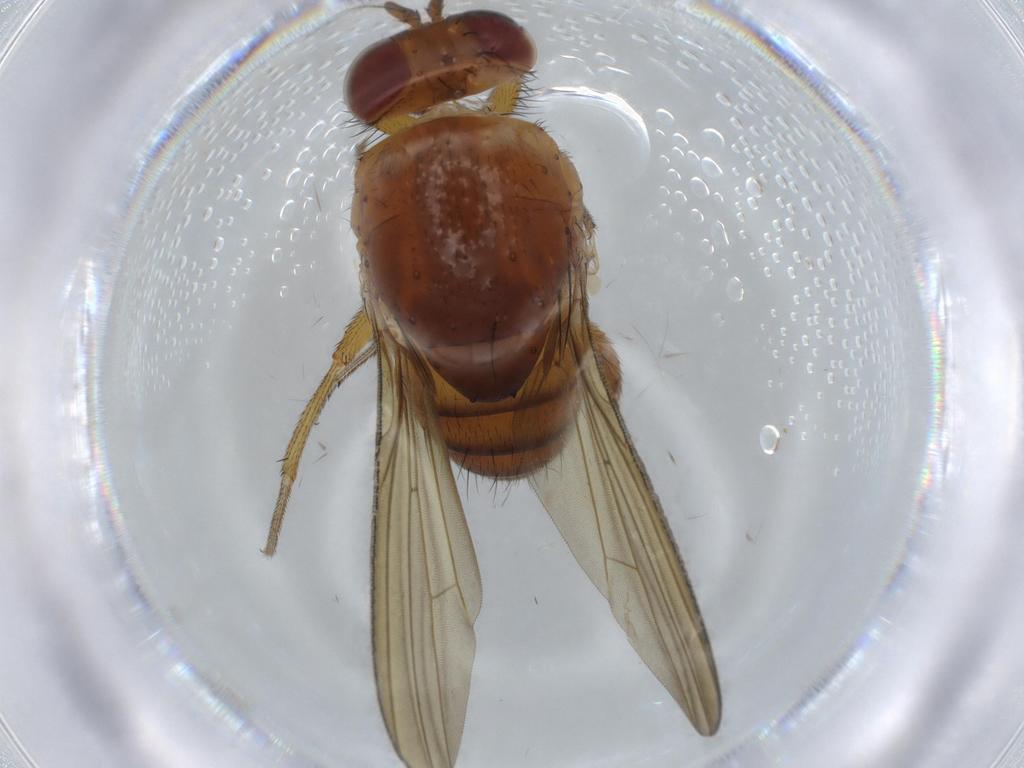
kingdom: Animalia
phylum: Arthropoda
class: Insecta
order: Diptera
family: Psychodidae
